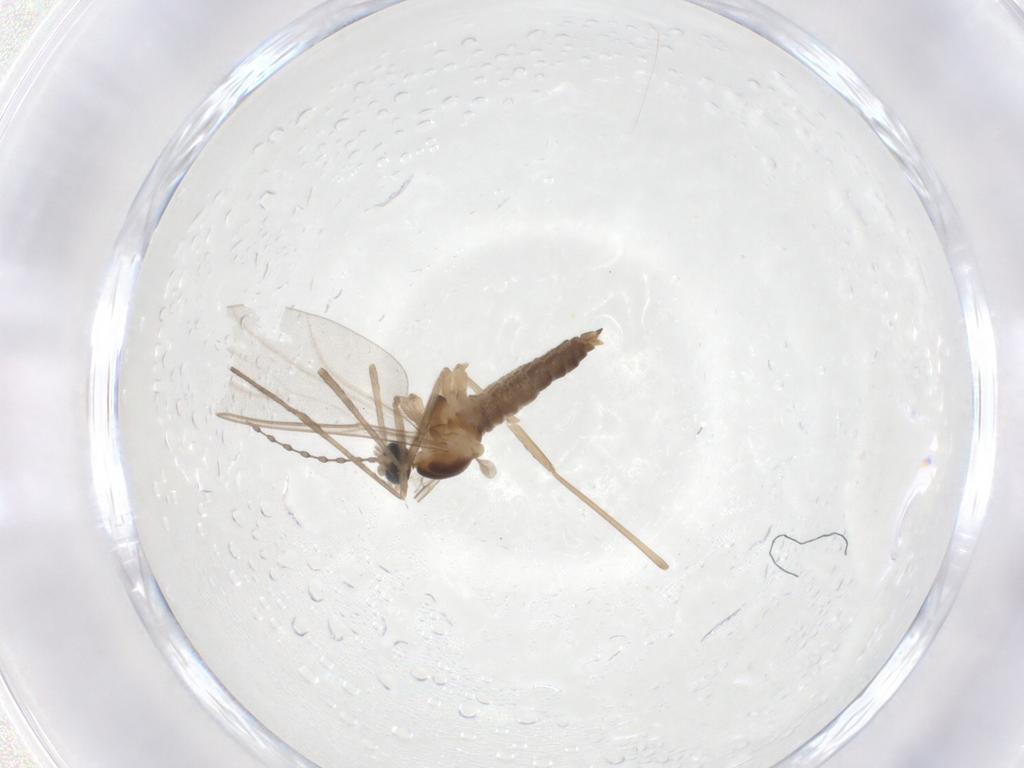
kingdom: Animalia
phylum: Arthropoda
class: Insecta
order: Diptera
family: Cecidomyiidae
